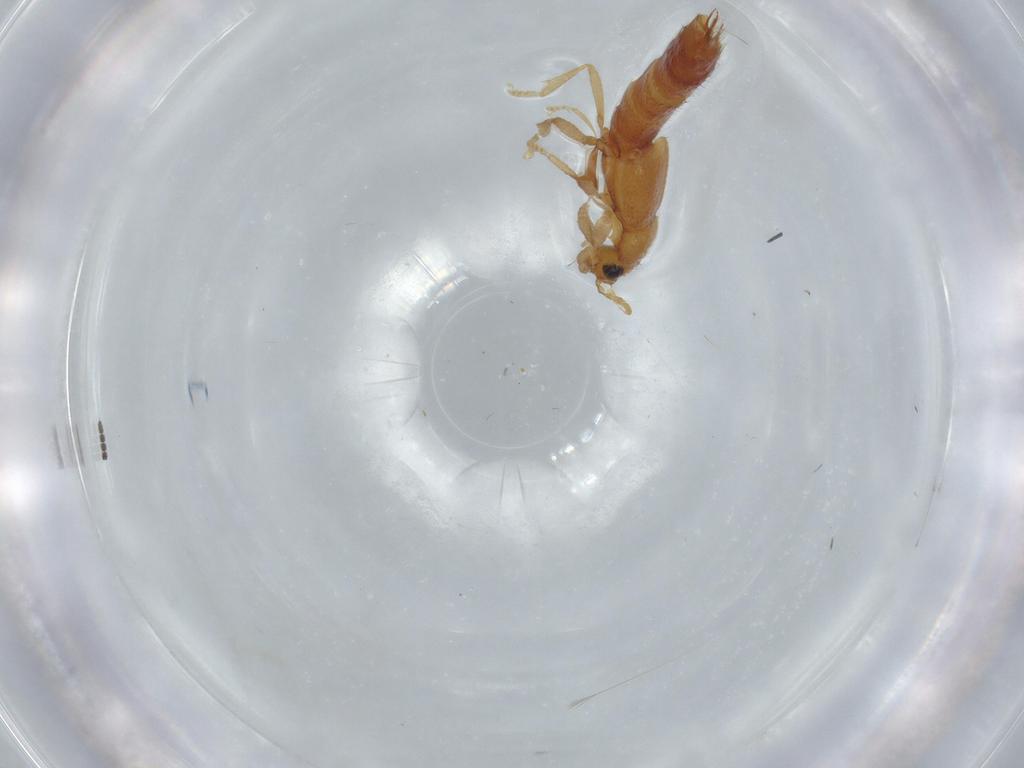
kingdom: Animalia
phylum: Arthropoda
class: Insecta
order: Coleoptera
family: Staphylinidae
